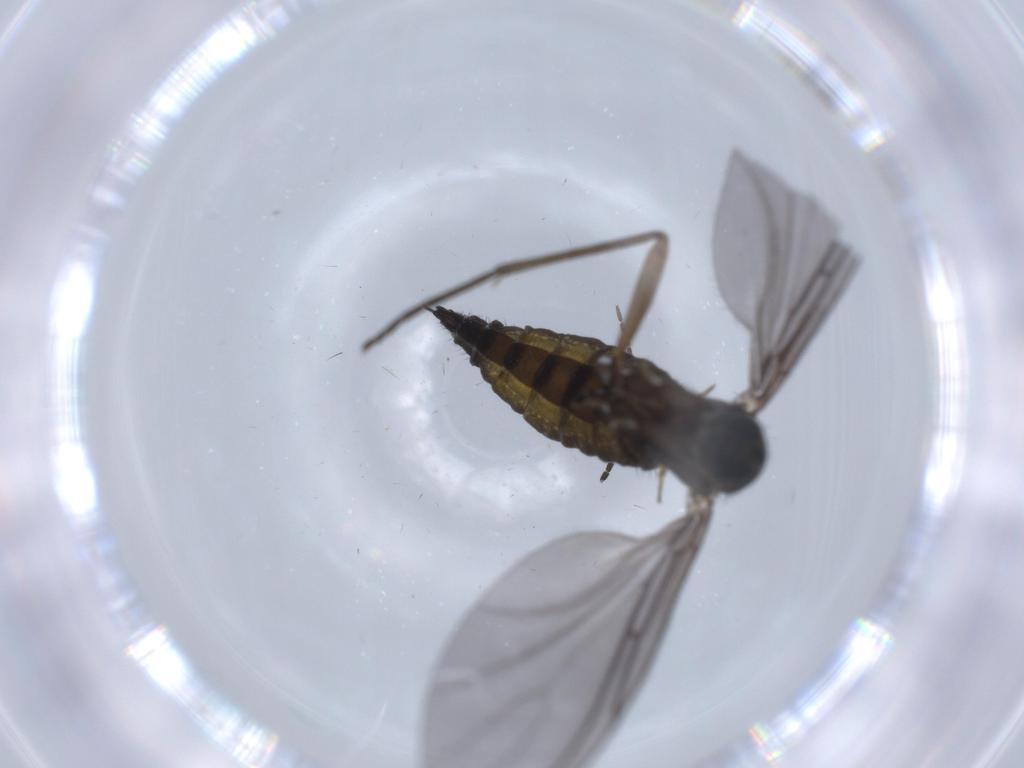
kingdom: Animalia
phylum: Arthropoda
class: Insecta
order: Diptera
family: Sciaridae
